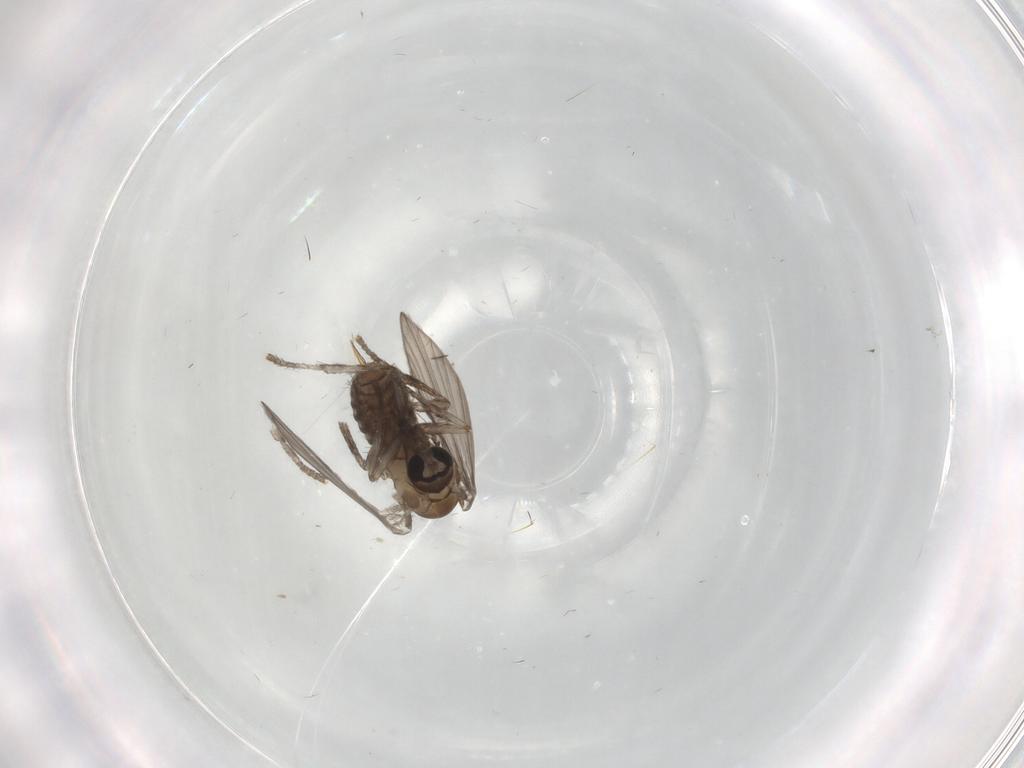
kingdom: Animalia
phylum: Arthropoda
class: Insecta
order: Diptera
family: Psychodidae
